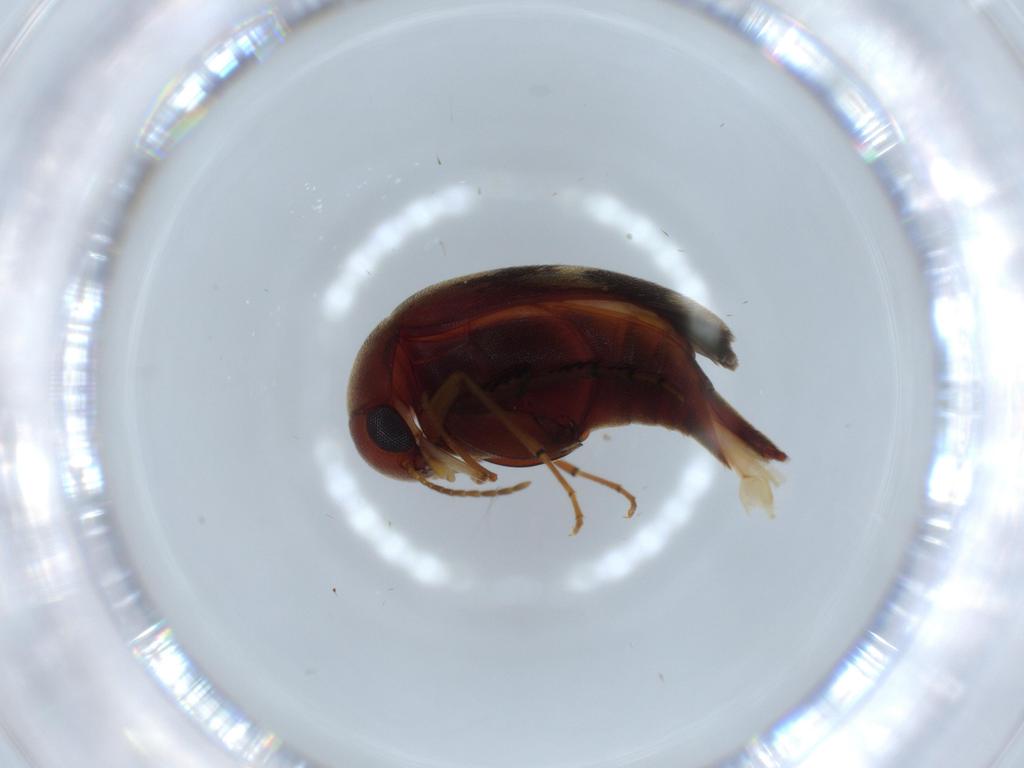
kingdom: Animalia
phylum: Arthropoda
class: Insecta
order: Coleoptera
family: Mordellidae
